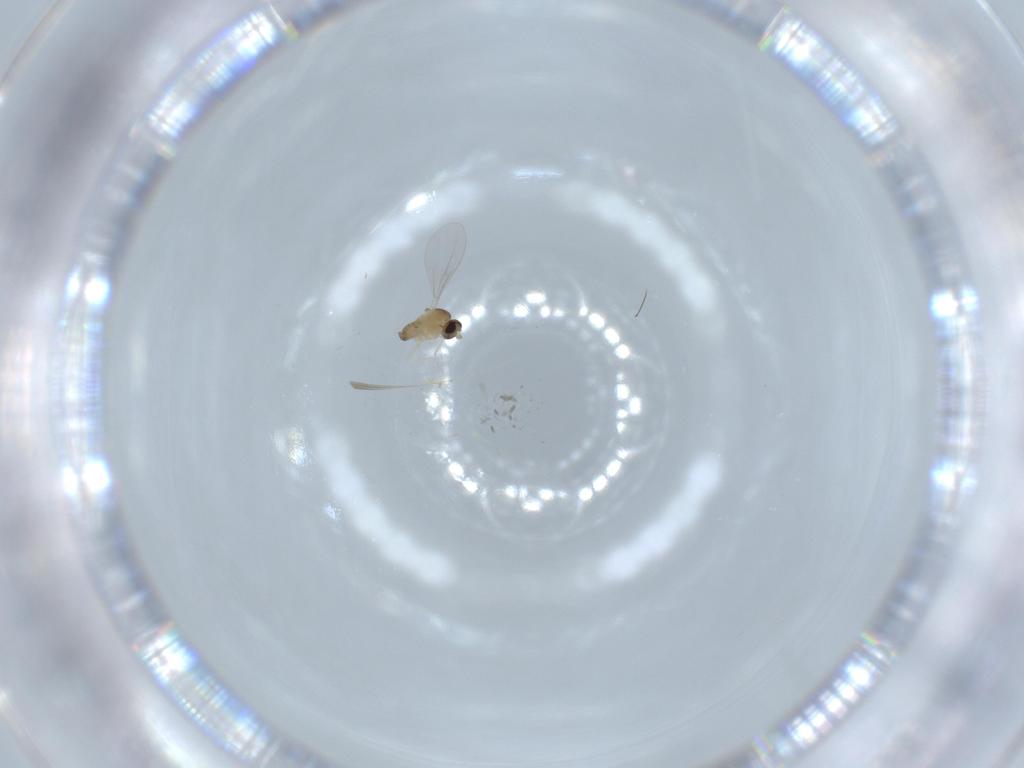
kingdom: Animalia
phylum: Arthropoda
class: Insecta
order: Diptera
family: Cecidomyiidae
